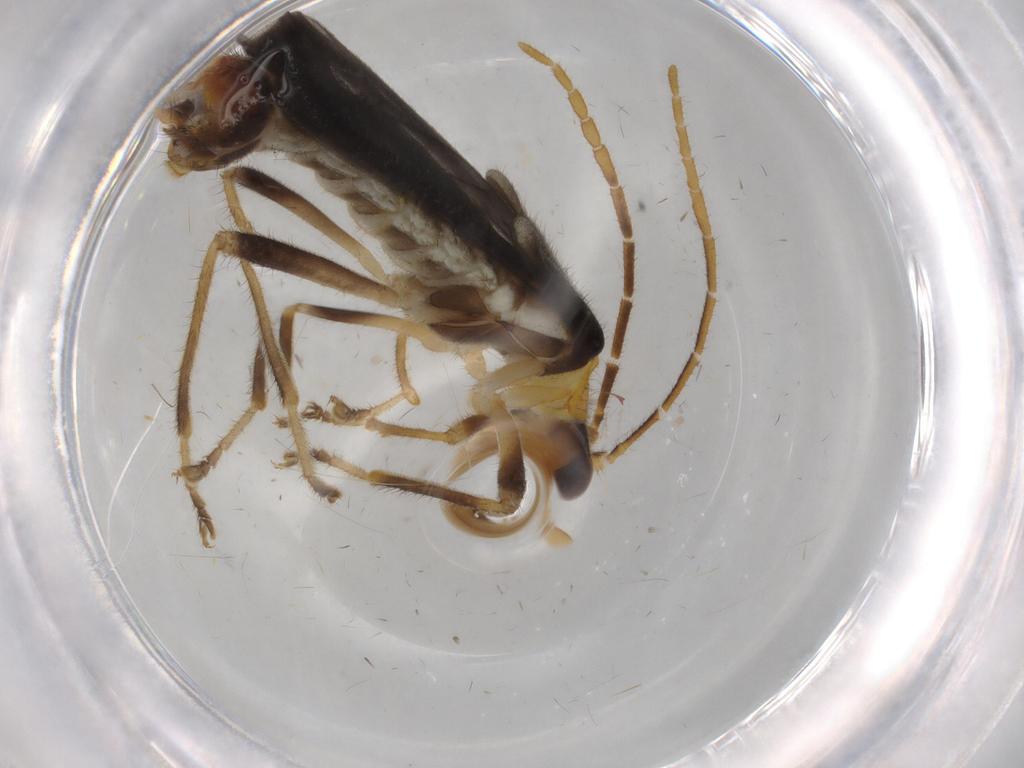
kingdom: Animalia
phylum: Arthropoda
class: Insecta
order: Coleoptera
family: Cantharidae
